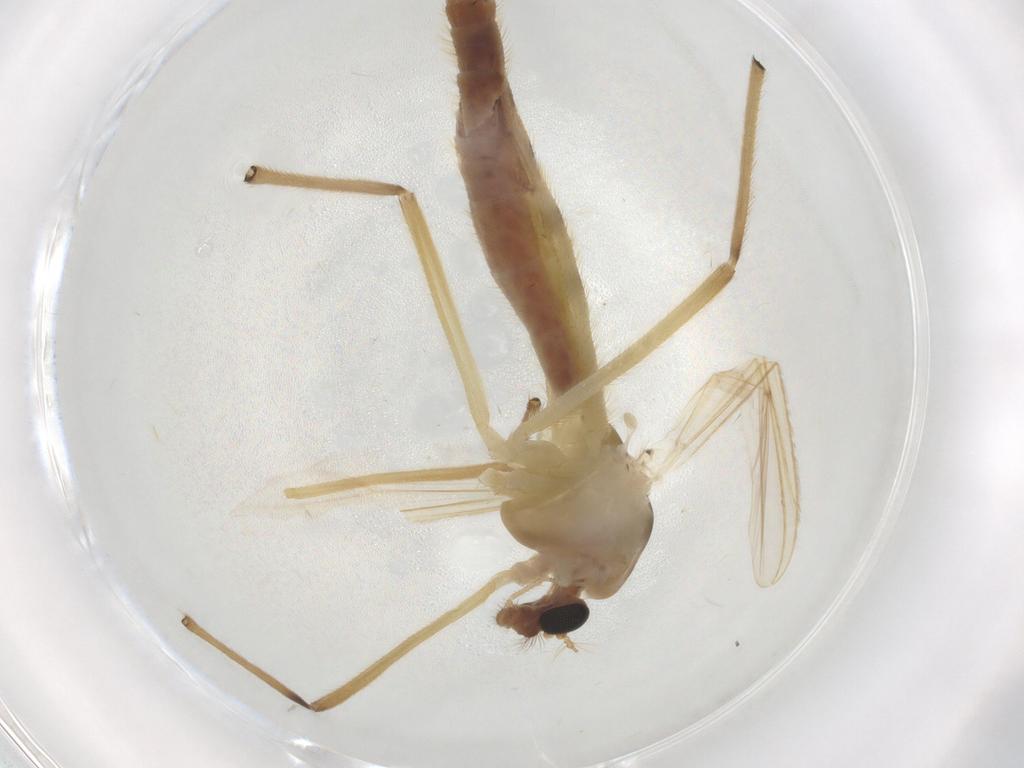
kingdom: Animalia
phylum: Arthropoda
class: Insecta
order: Diptera
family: Chironomidae
